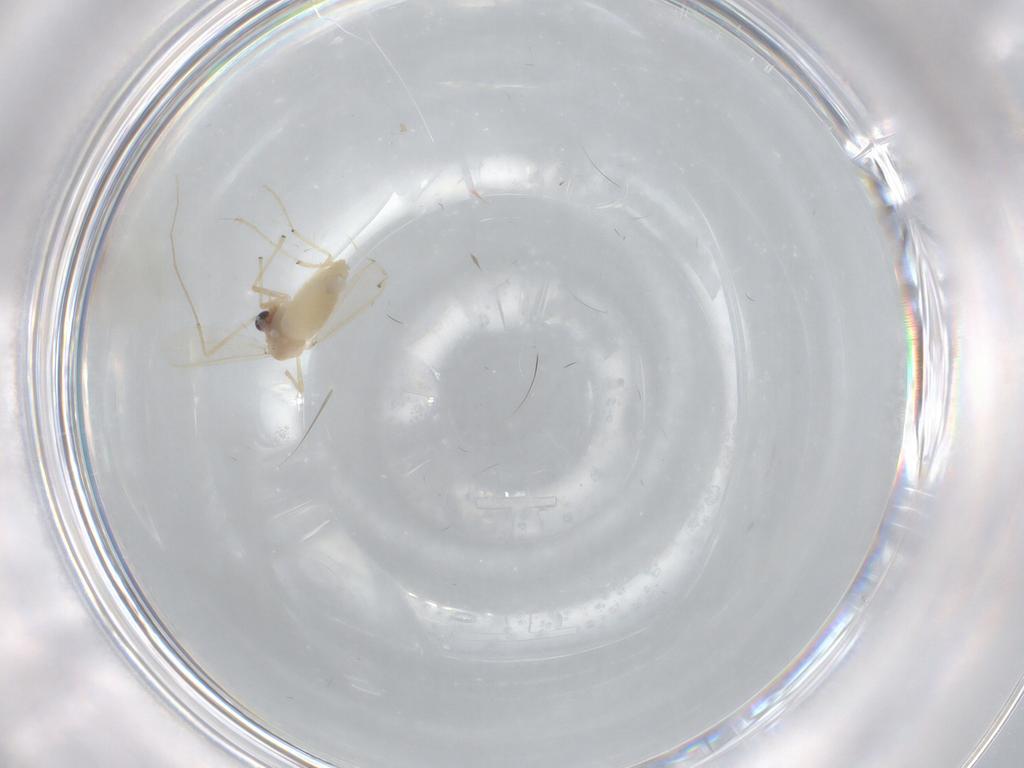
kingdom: Animalia
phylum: Arthropoda
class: Insecta
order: Diptera
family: Chironomidae
